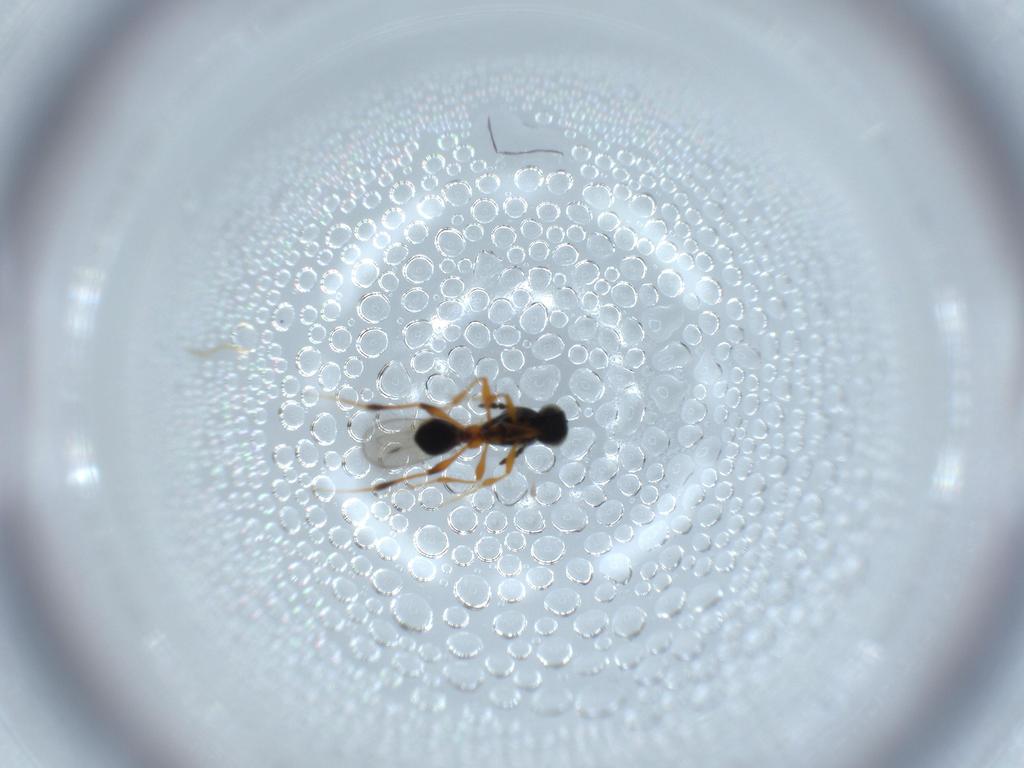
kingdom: Animalia
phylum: Arthropoda
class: Insecta
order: Hymenoptera
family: Platygastridae
